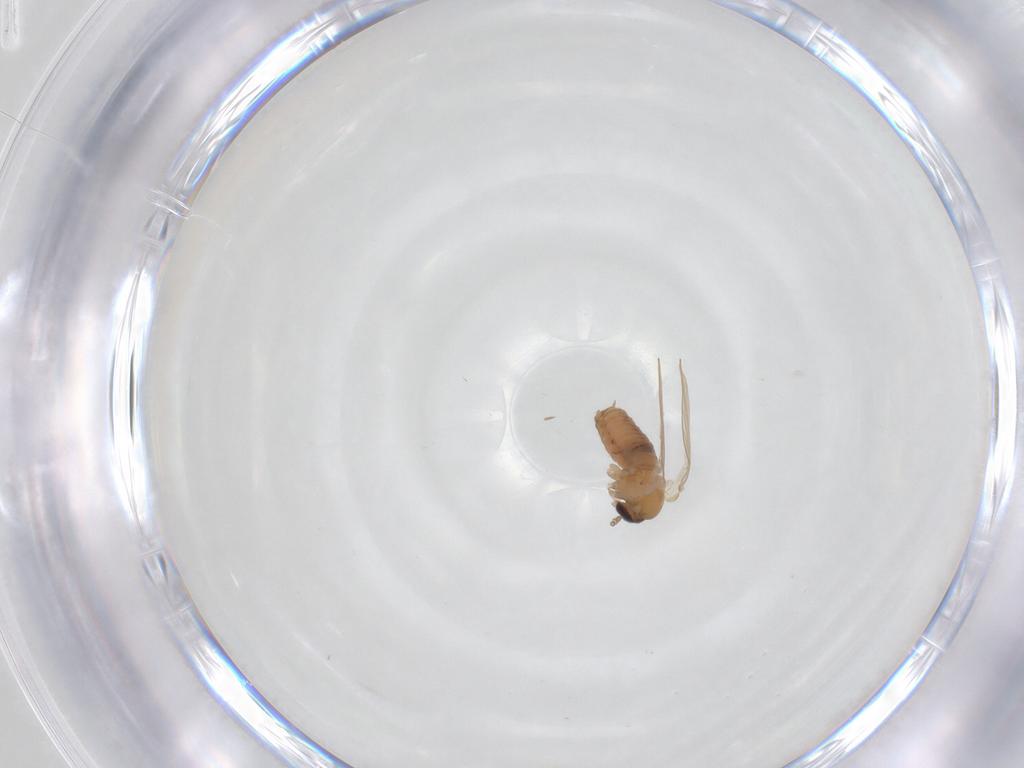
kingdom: Animalia
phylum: Arthropoda
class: Insecta
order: Diptera
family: Psychodidae
